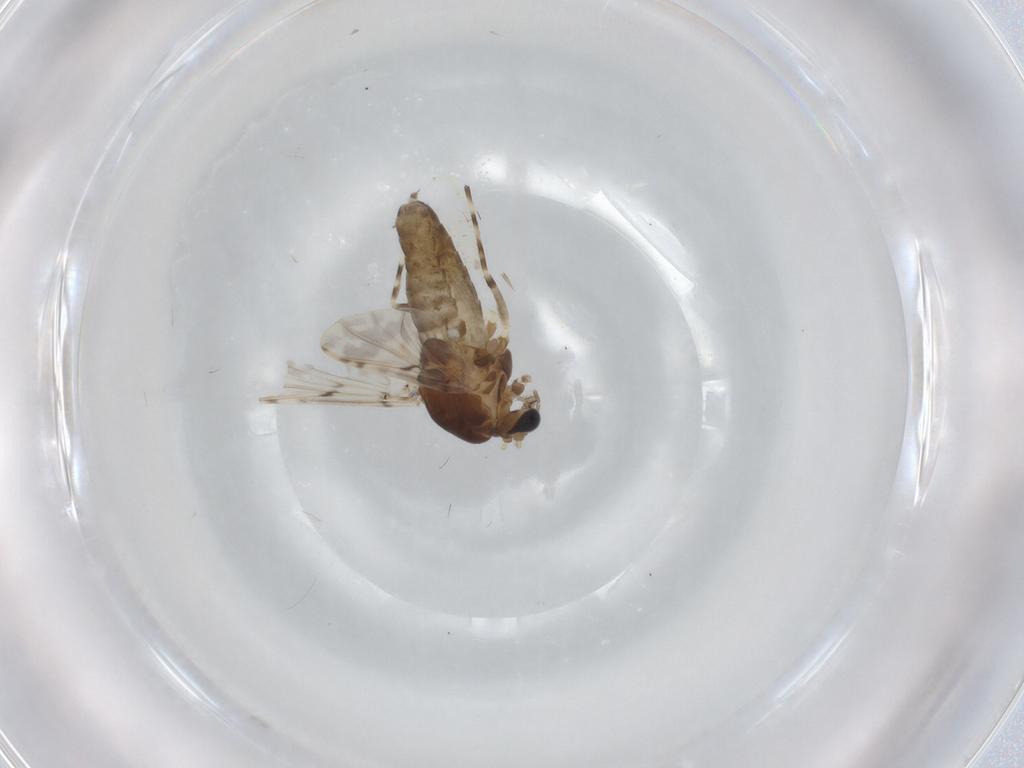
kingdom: Animalia
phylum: Arthropoda
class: Insecta
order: Diptera
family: Chironomidae
